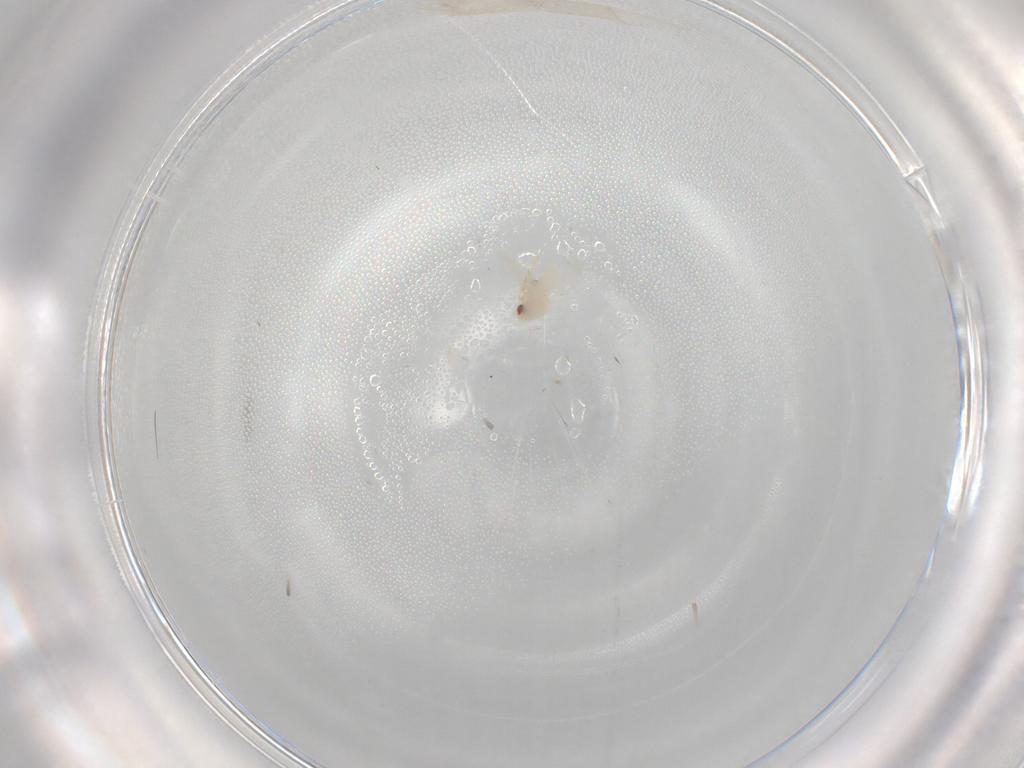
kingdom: Animalia
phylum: Arthropoda
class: Insecta
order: Hemiptera
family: Aleyrodidae
